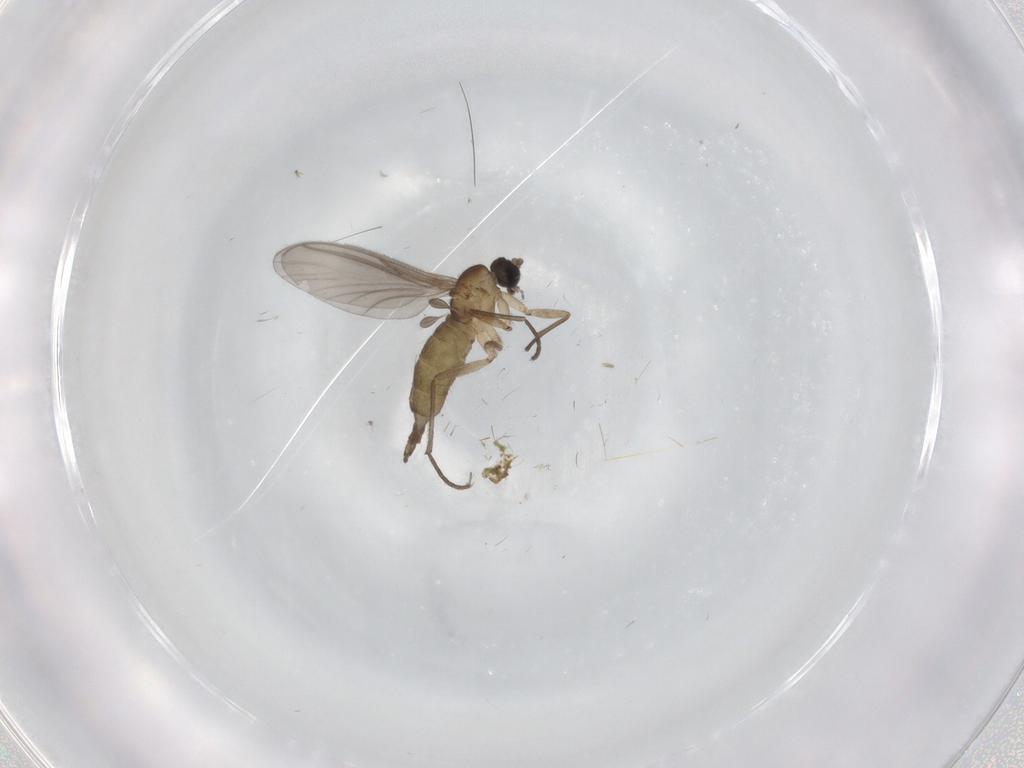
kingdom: Animalia
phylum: Arthropoda
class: Insecta
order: Diptera
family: Sciaridae
